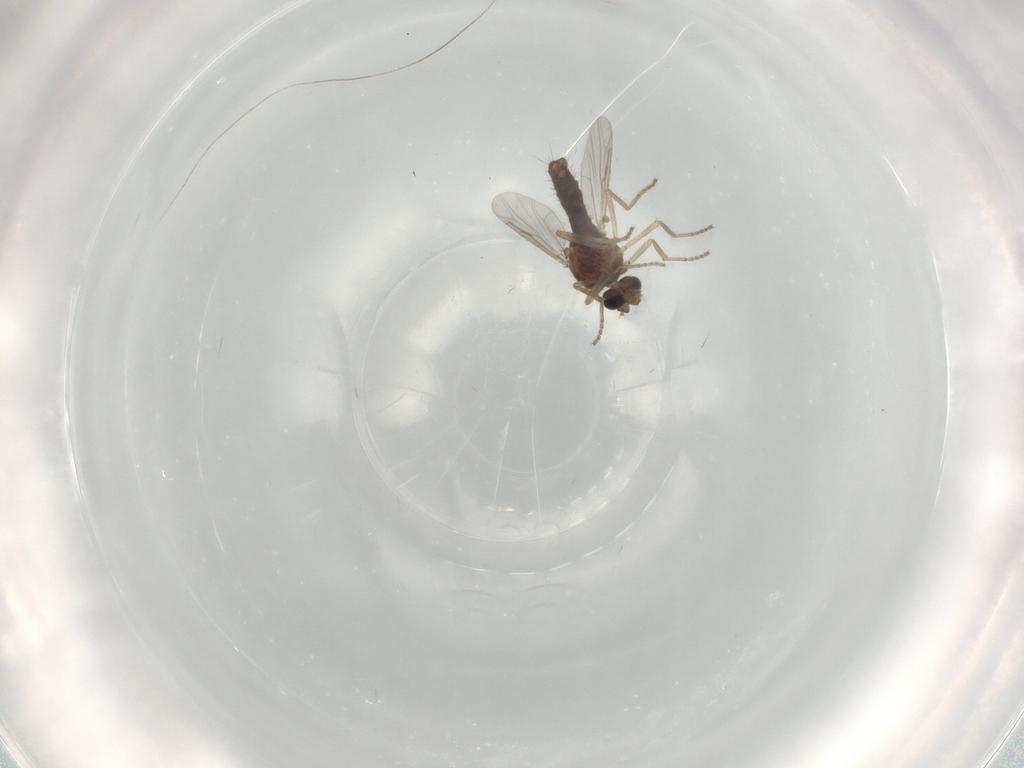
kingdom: Animalia
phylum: Arthropoda
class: Insecta
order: Diptera
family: Ceratopogonidae
